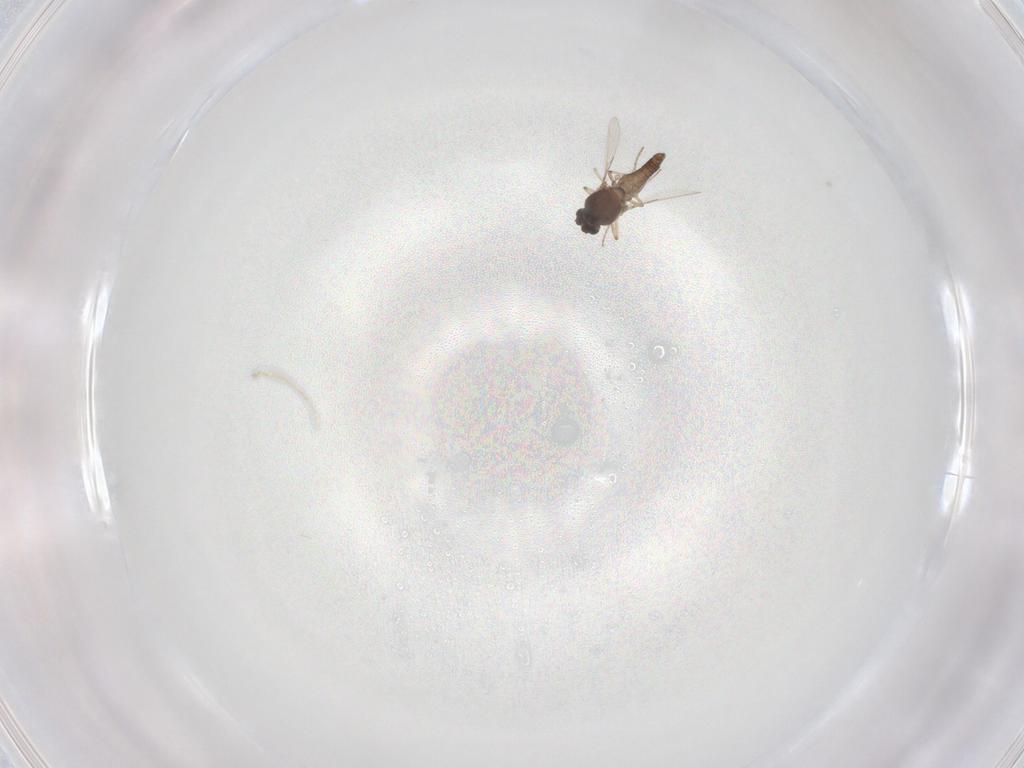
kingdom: Animalia
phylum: Arthropoda
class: Insecta
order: Diptera
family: Ceratopogonidae
